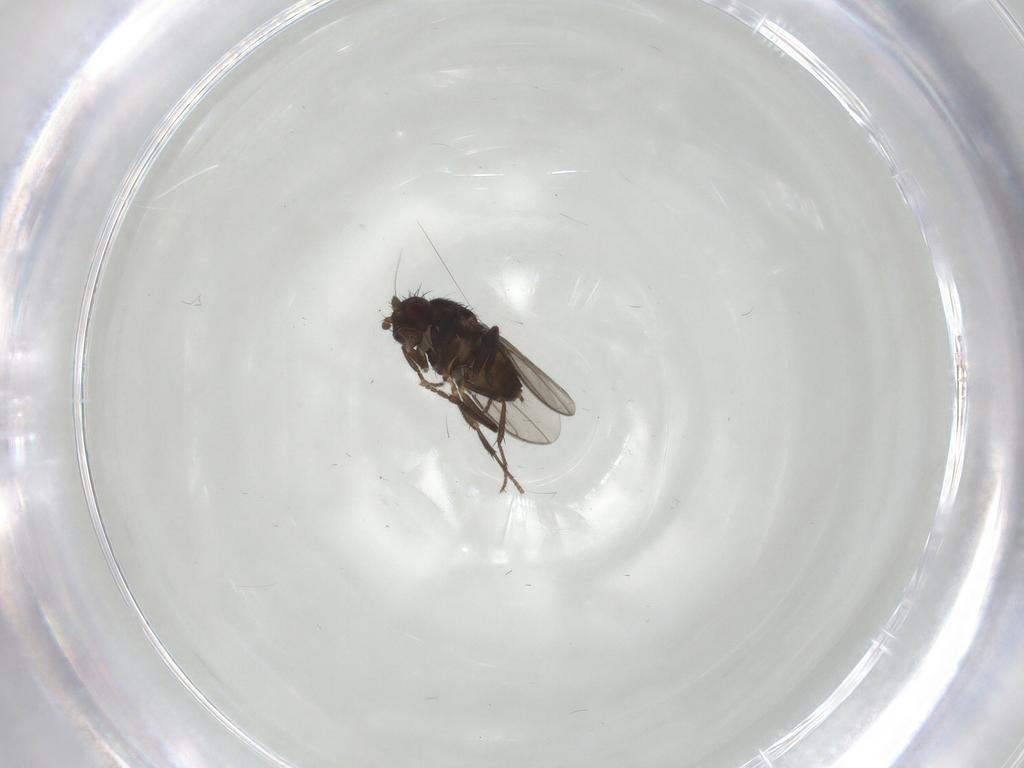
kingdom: Animalia
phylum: Arthropoda
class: Insecta
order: Diptera
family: Sphaeroceridae
